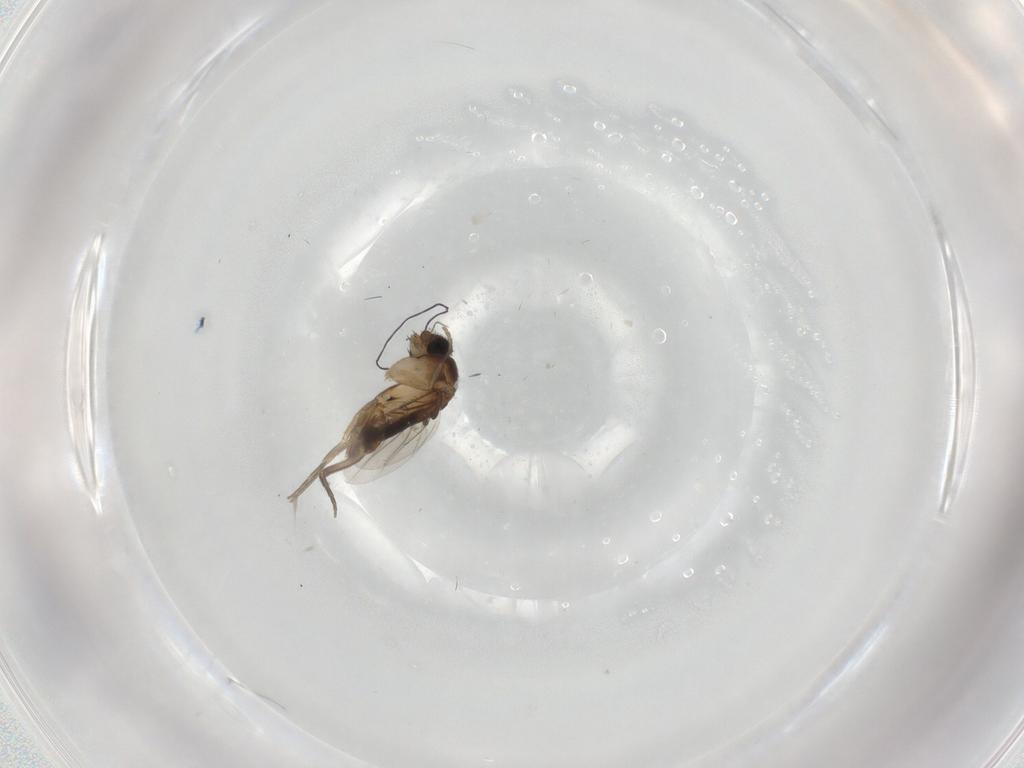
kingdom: Animalia
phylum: Arthropoda
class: Insecta
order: Diptera
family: Phoridae
